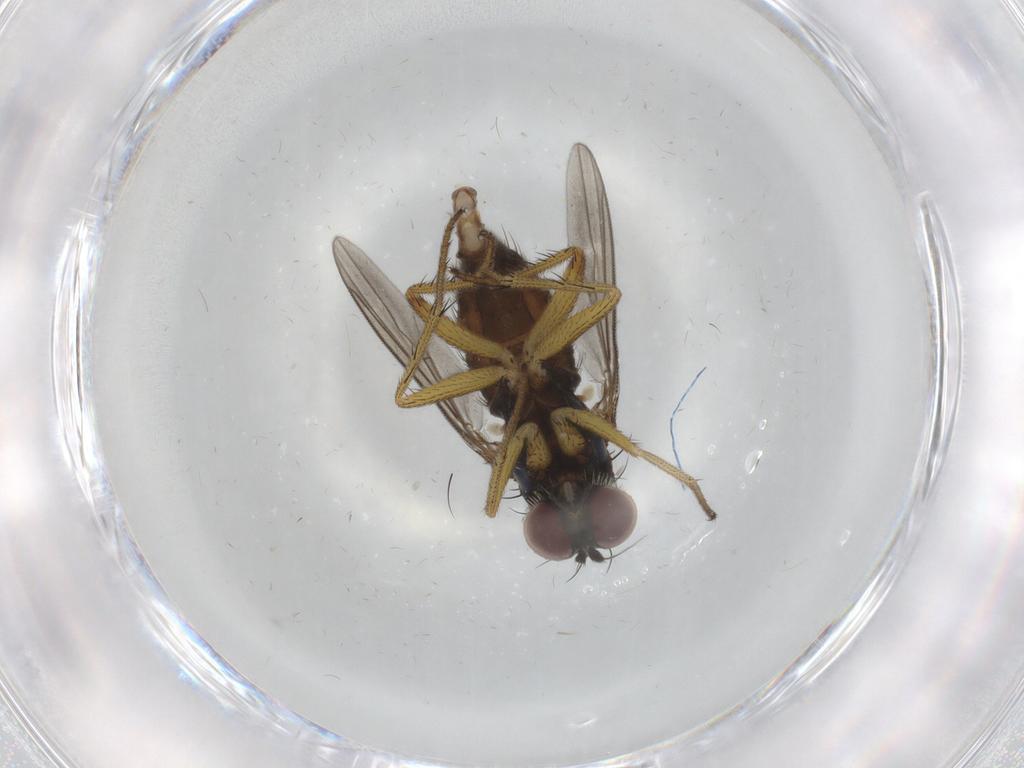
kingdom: Animalia
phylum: Arthropoda
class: Insecta
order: Diptera
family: Dolichopodidae
